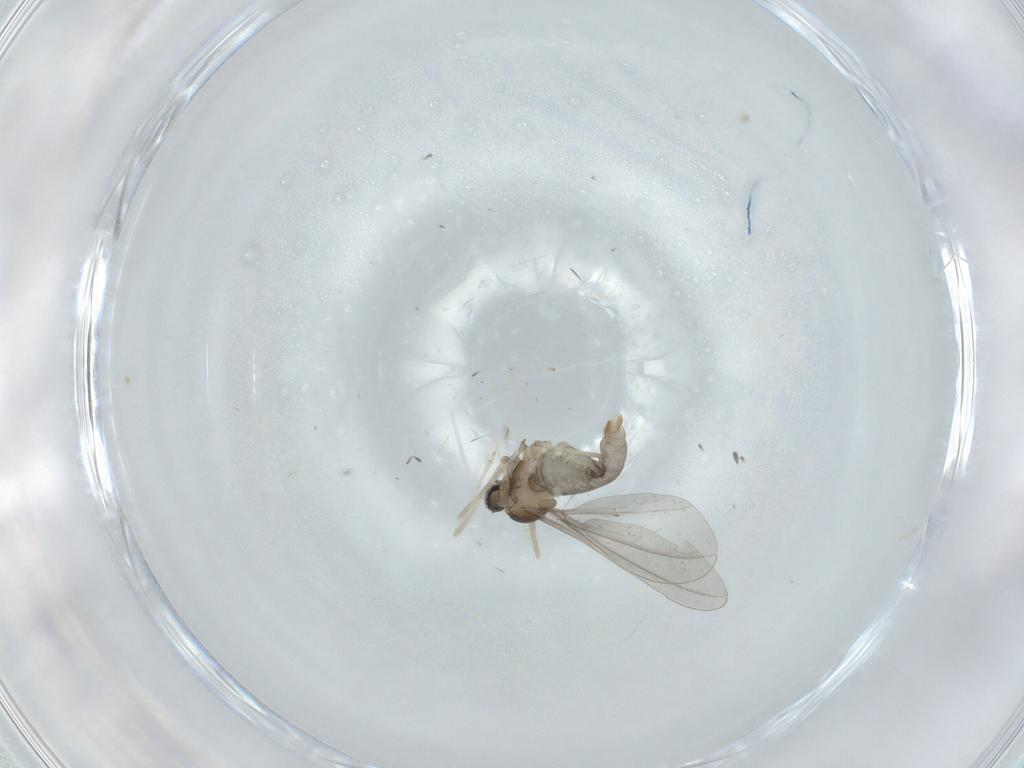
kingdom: Animalia
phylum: Arthropoda
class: Insecta
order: Diptera
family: Cecidomyiidae
